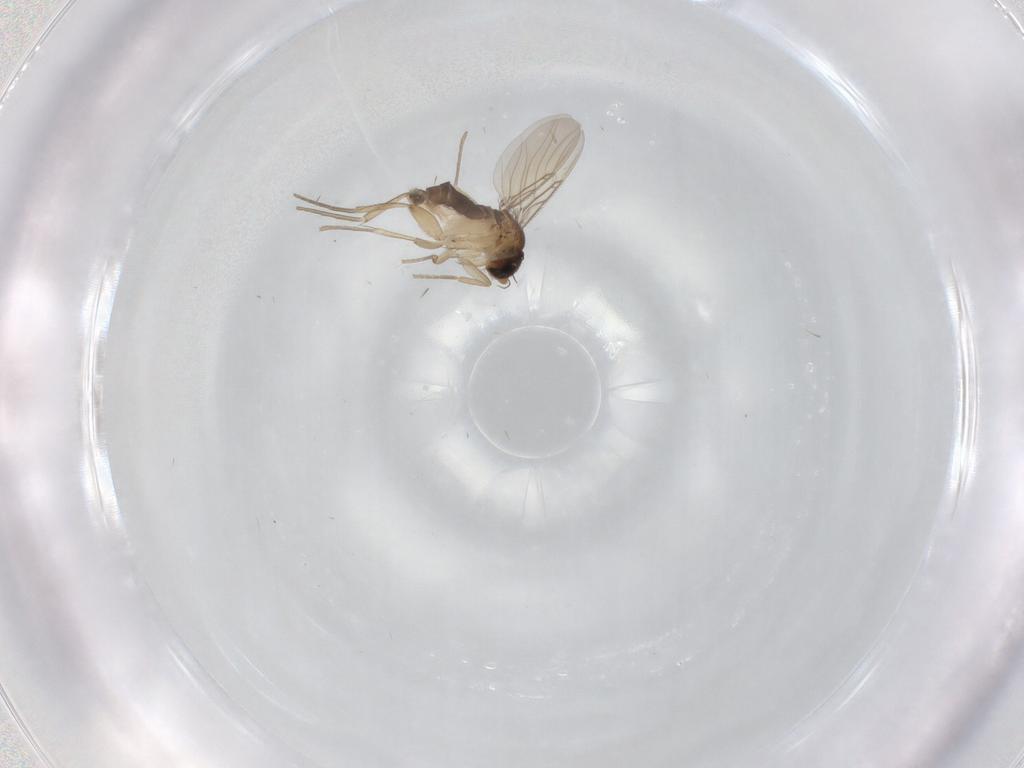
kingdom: Animalia
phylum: Arthropoda
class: Insecta
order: Diptera
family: Phoridae
